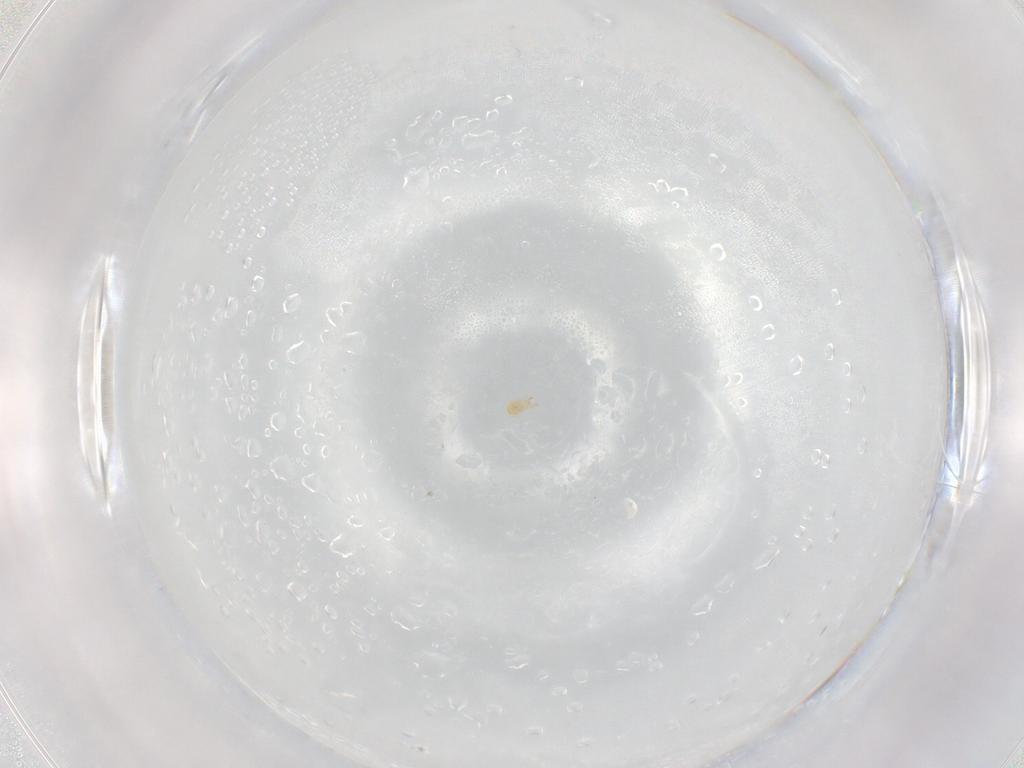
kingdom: Animalia
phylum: Arthropoda
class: Arachnida
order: Trombidiformes
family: Pygmephoridae
